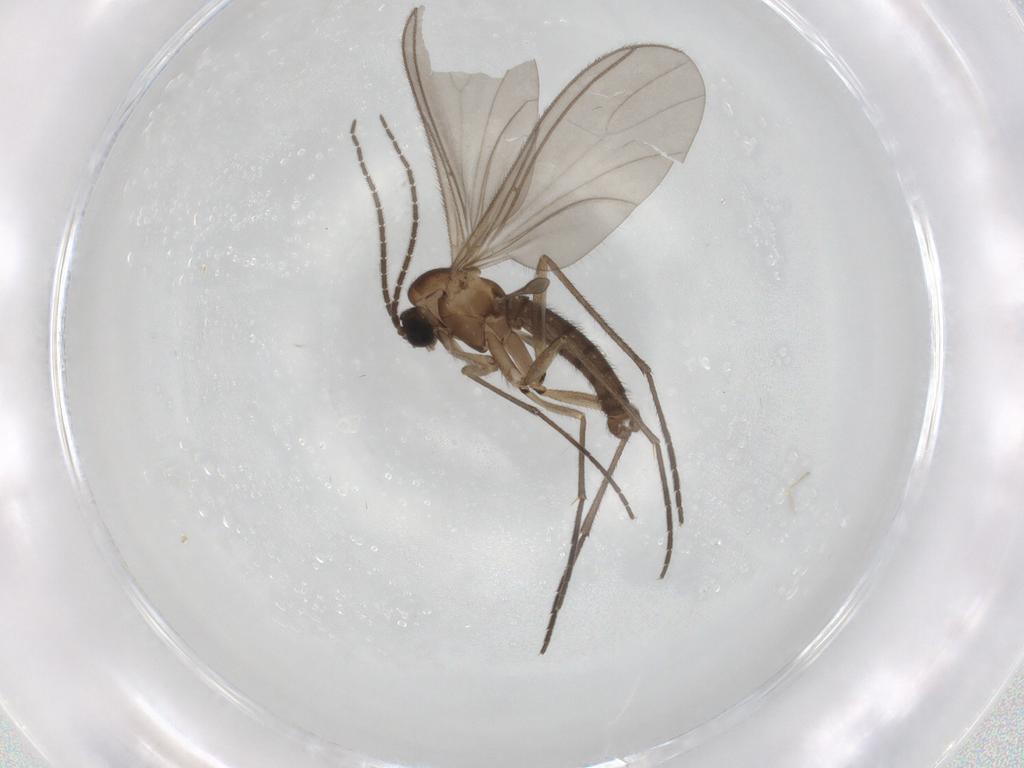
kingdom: Animalia
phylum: Arthropoda
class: Insecta
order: Diptera
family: Sciaridae
